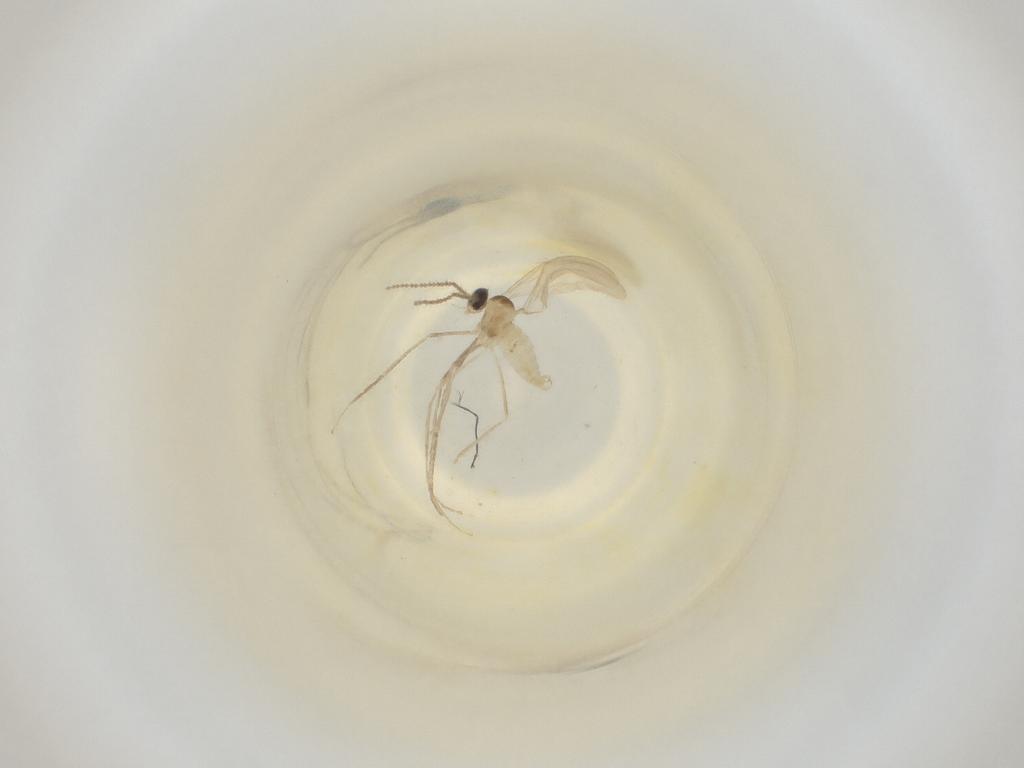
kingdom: Animalia
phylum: Arthropoda
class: Insecta
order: Diptera
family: Cecidomyiidae
